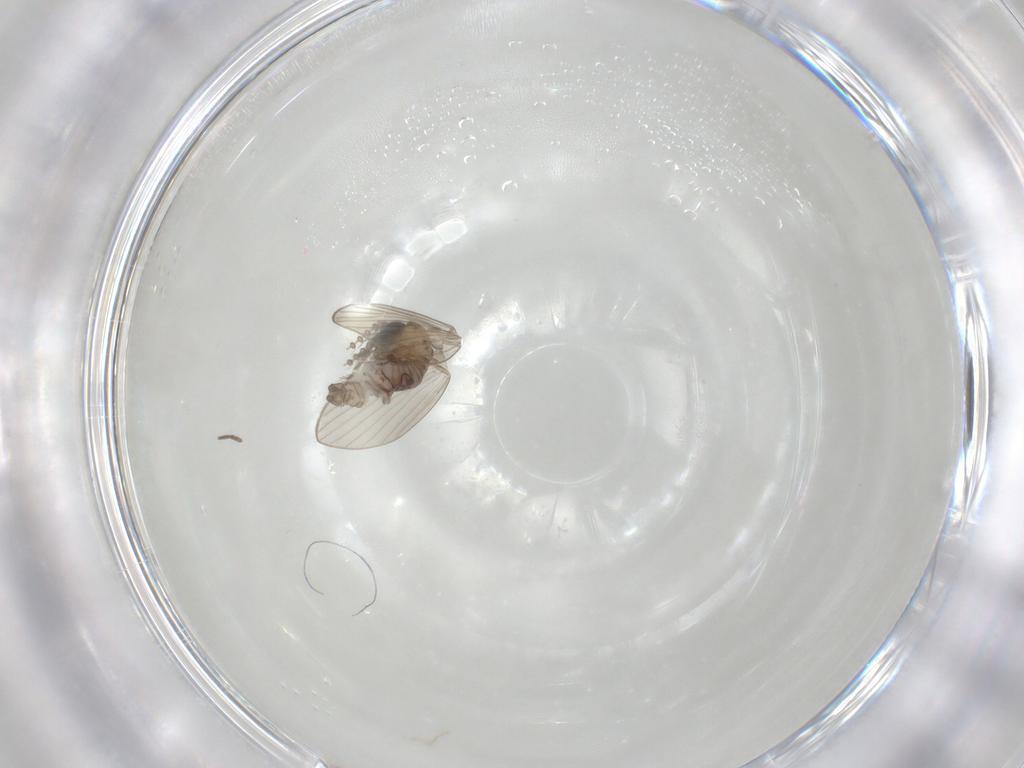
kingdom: Animalia
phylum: Arthropoda
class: Insecta
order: Diptera
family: Psychodidae
